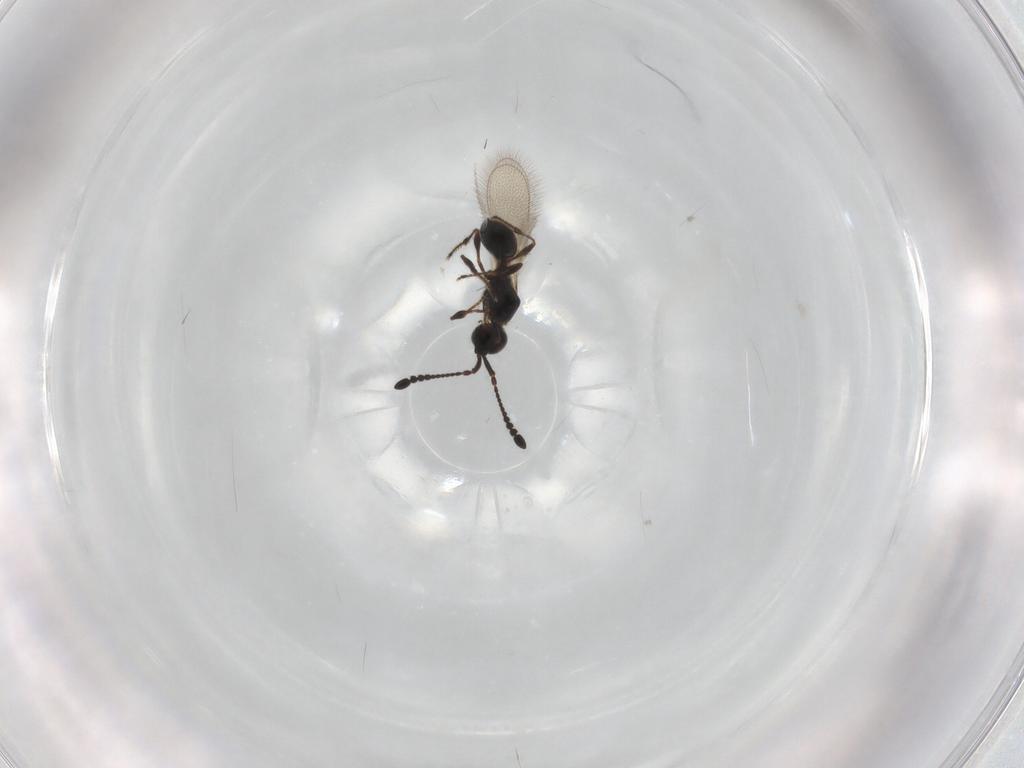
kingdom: Animalia
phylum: Arthropoda
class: Insecta
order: Hymenoptera
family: Diapriidae
